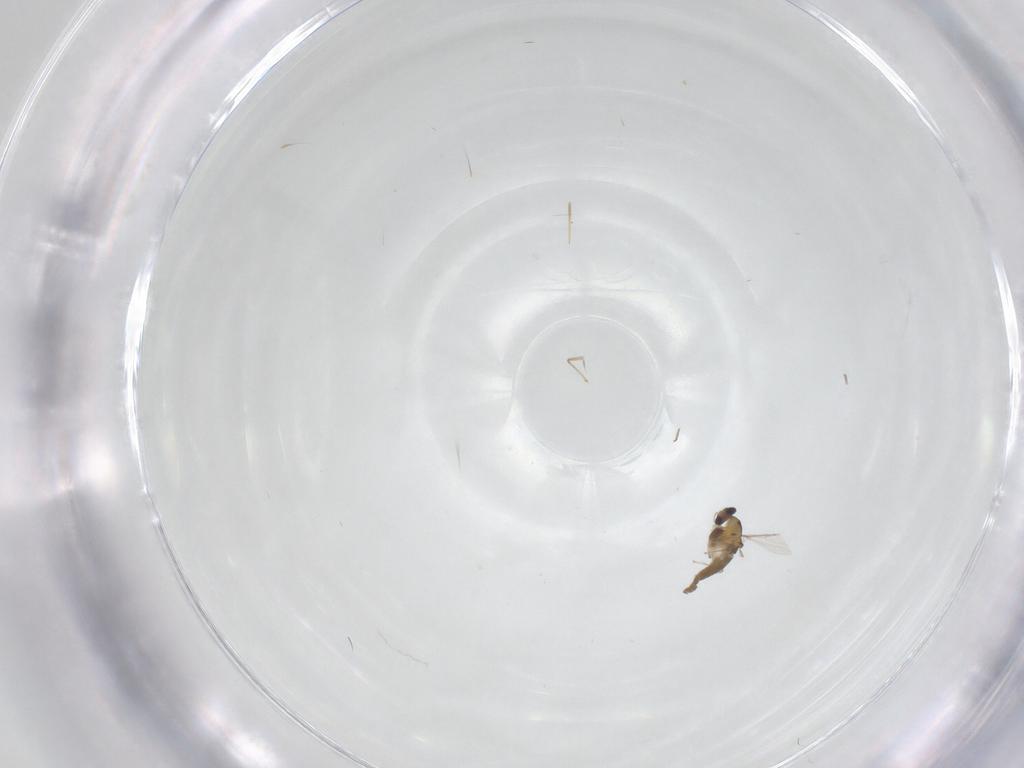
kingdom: Animalia
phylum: Arthropoda
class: Insecta
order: Diptera
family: Chironomidae
